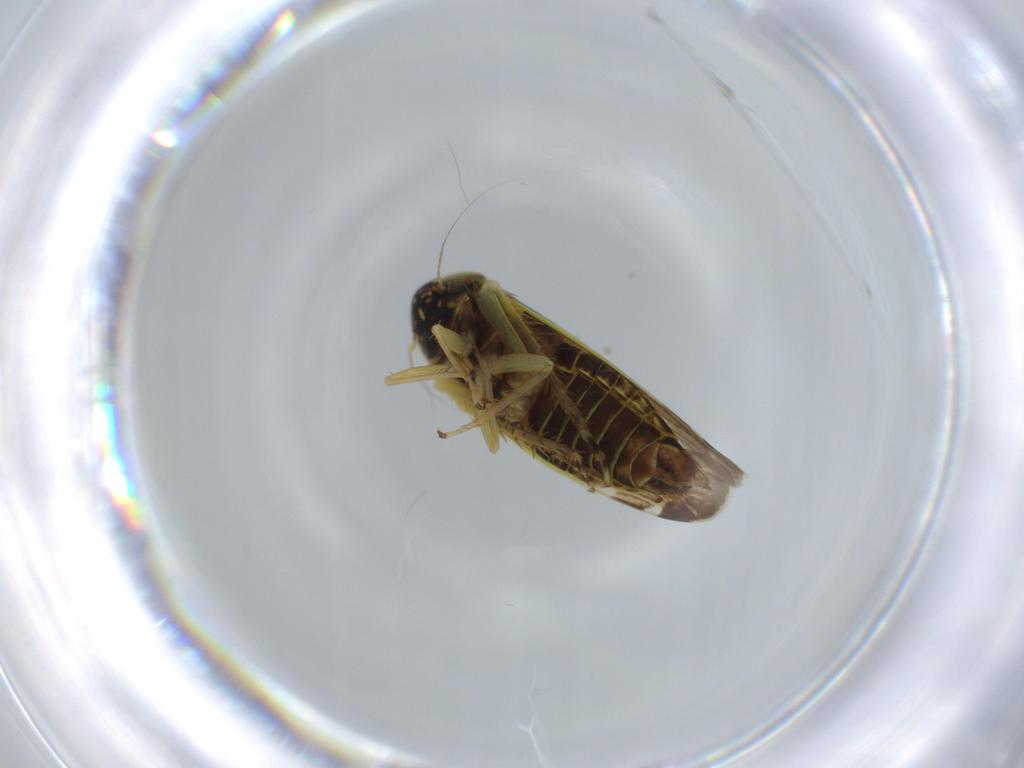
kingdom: Animalia
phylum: Arthropoda
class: Insecta
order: Hemiptera
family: Cicadellidae
